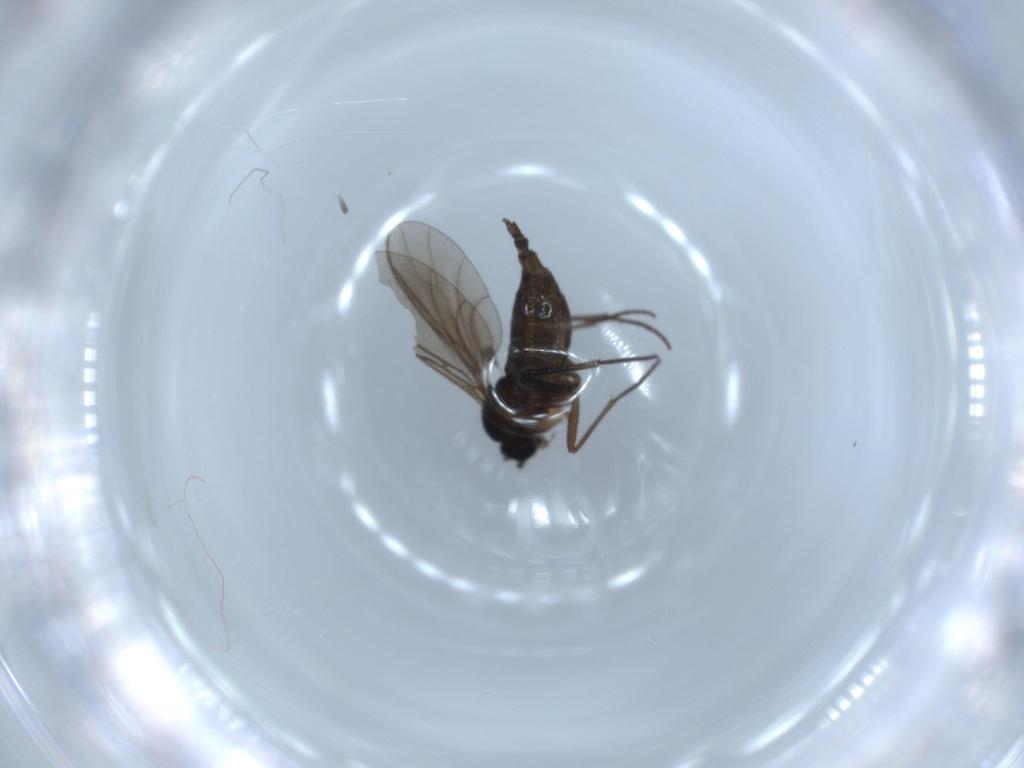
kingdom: Animalia
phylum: Arthropoda
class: Insecta
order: Diptera
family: Sciaridae
